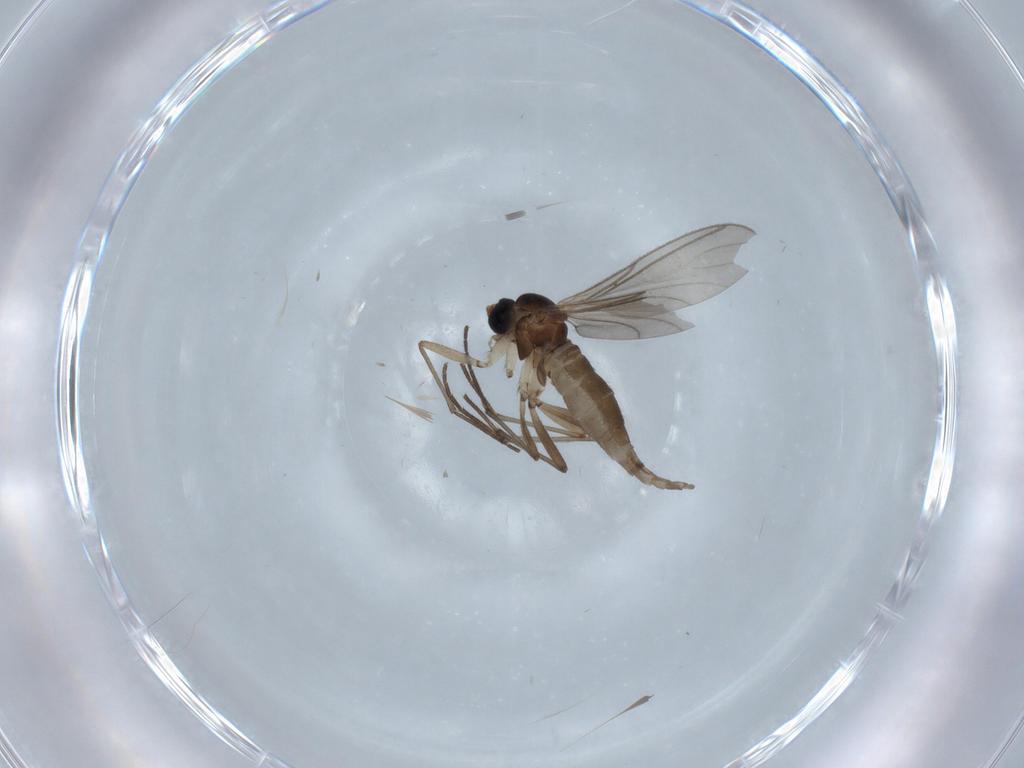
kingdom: Animalia
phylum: Arthropoda
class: Insecta
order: Diptera
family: Sciaridae
